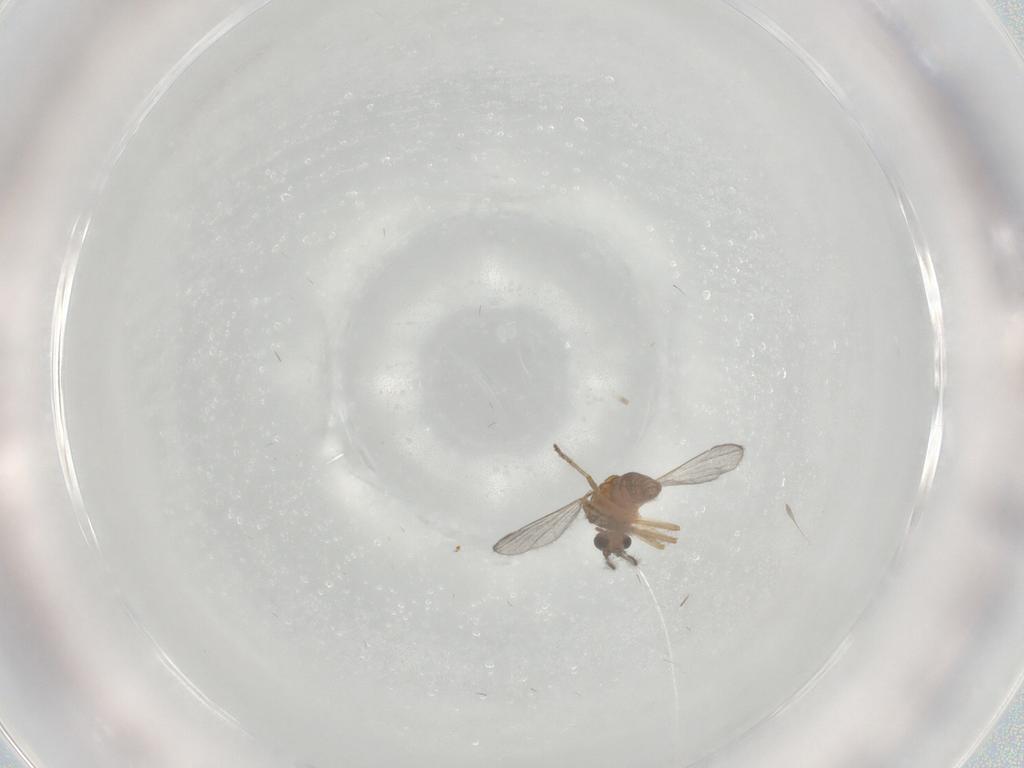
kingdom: Animalia
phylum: Arthropoda
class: Insecta
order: Diptera
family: Ceratopogonidae
